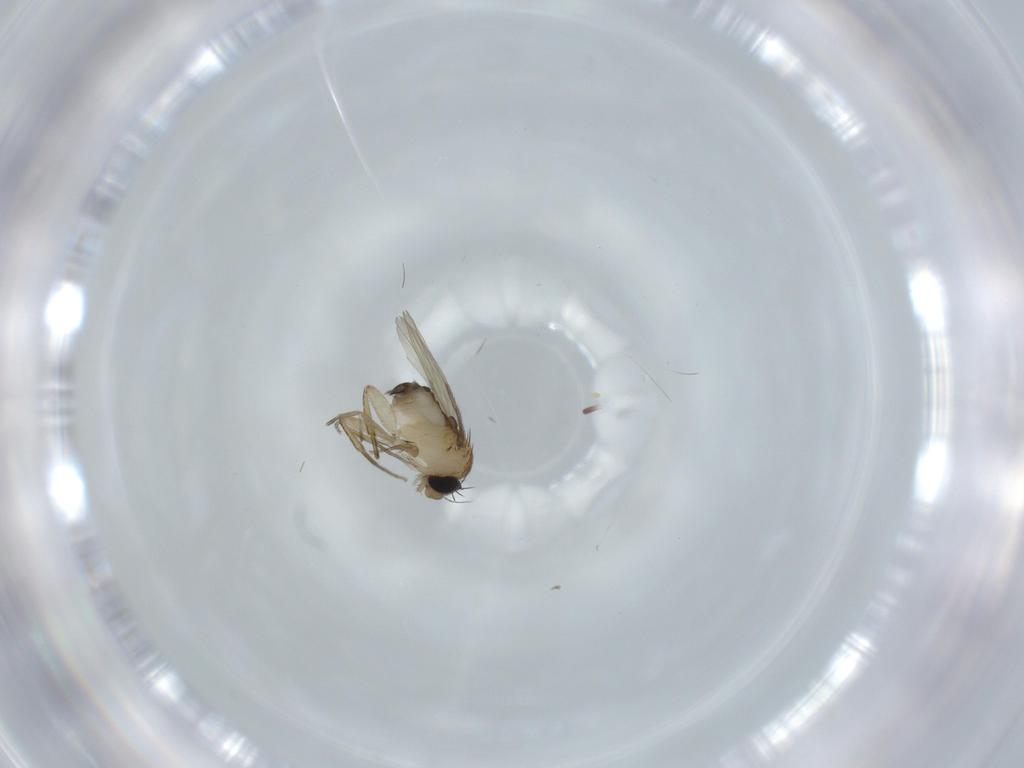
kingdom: Animalia
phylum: Arthropoda
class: Insecta
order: Diptera
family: Phoridae
